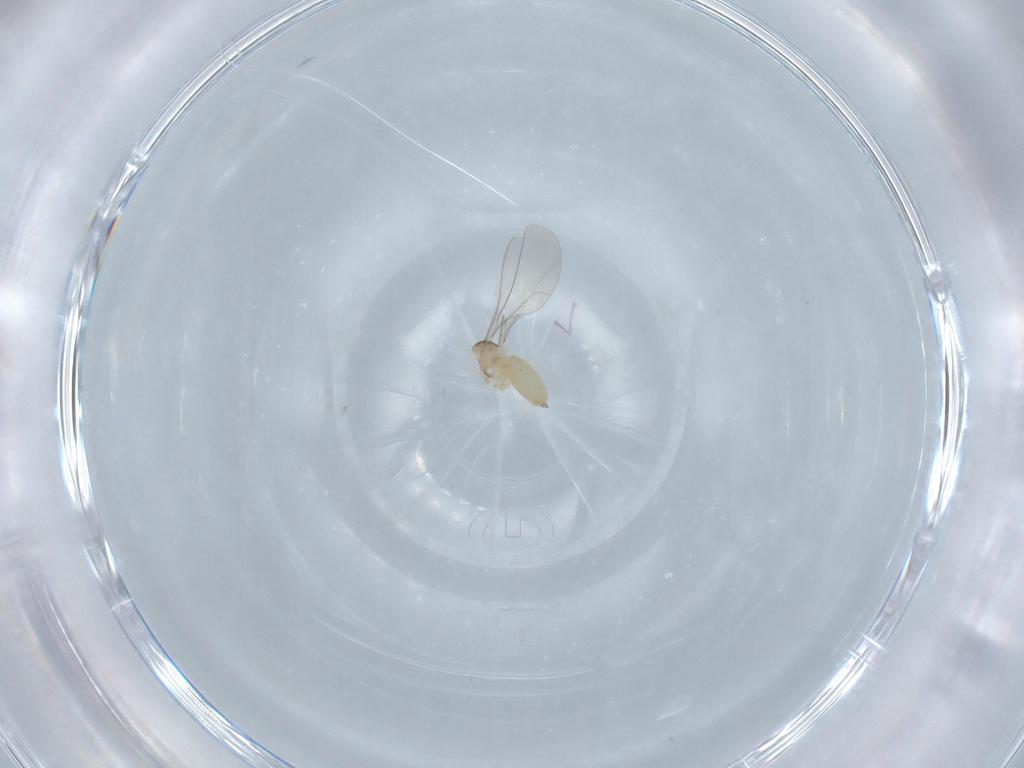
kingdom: Animalia
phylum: Arthropoda
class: Insecta
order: Diptera
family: Cecidomyiidae
